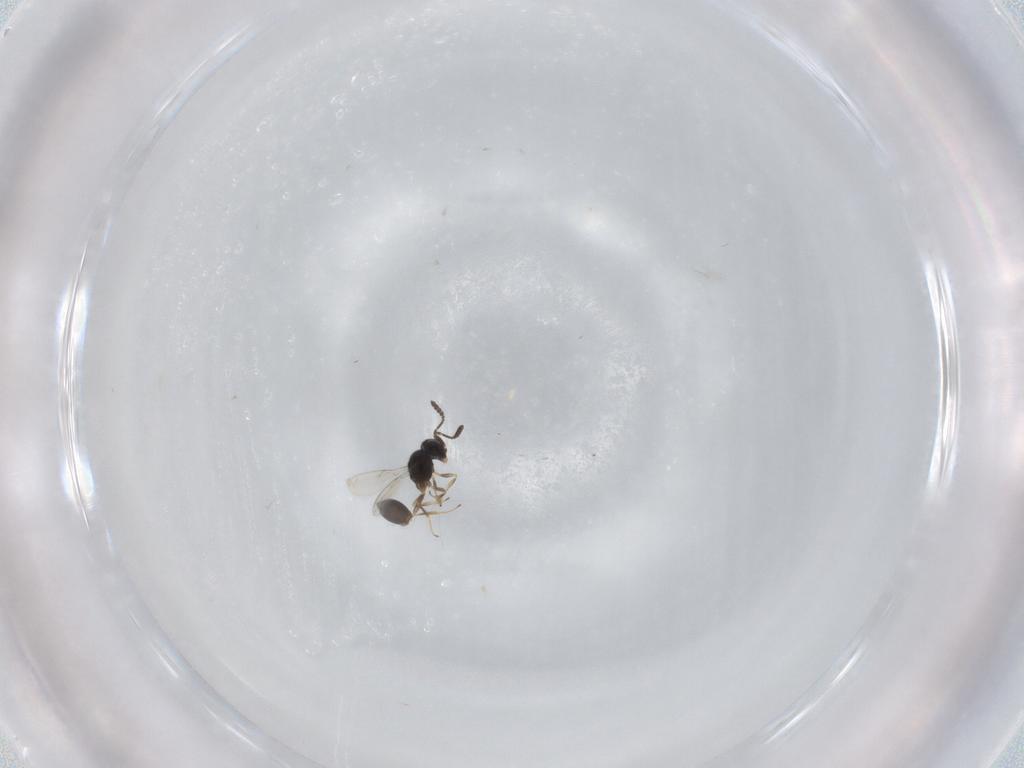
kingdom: Animalia
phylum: Arthropoda
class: Insecta
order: Hymenoptera
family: Scelionidae
